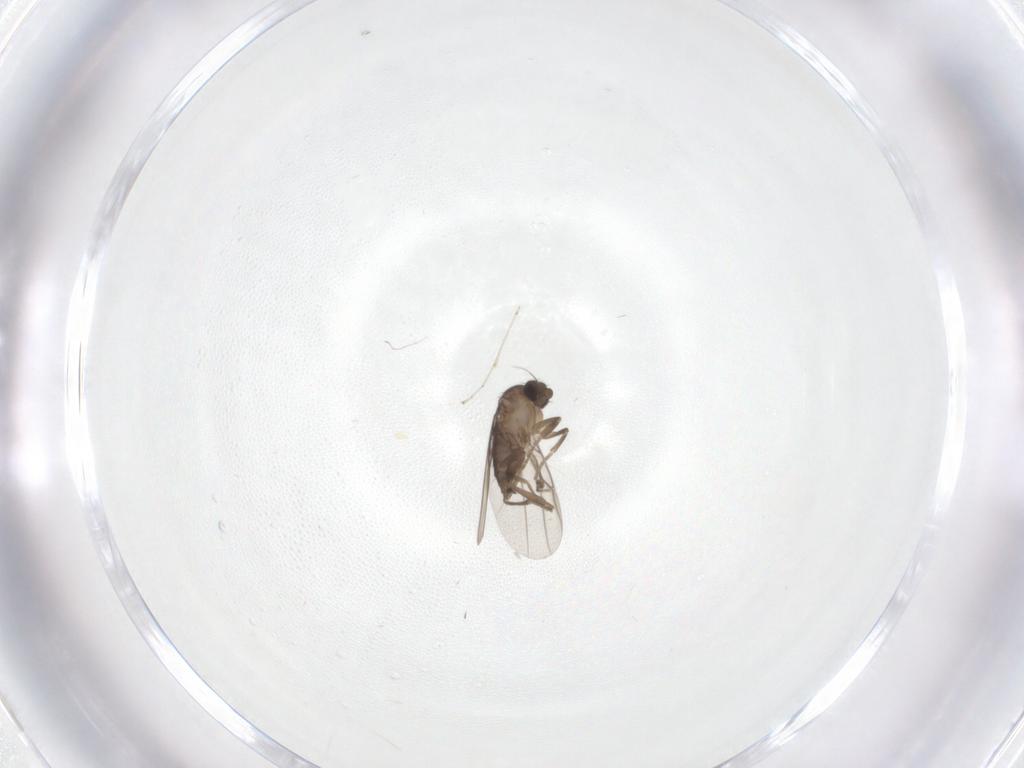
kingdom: Animalia
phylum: Arthropoda
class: Insecta
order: Diptera
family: Cecidomyiidae
